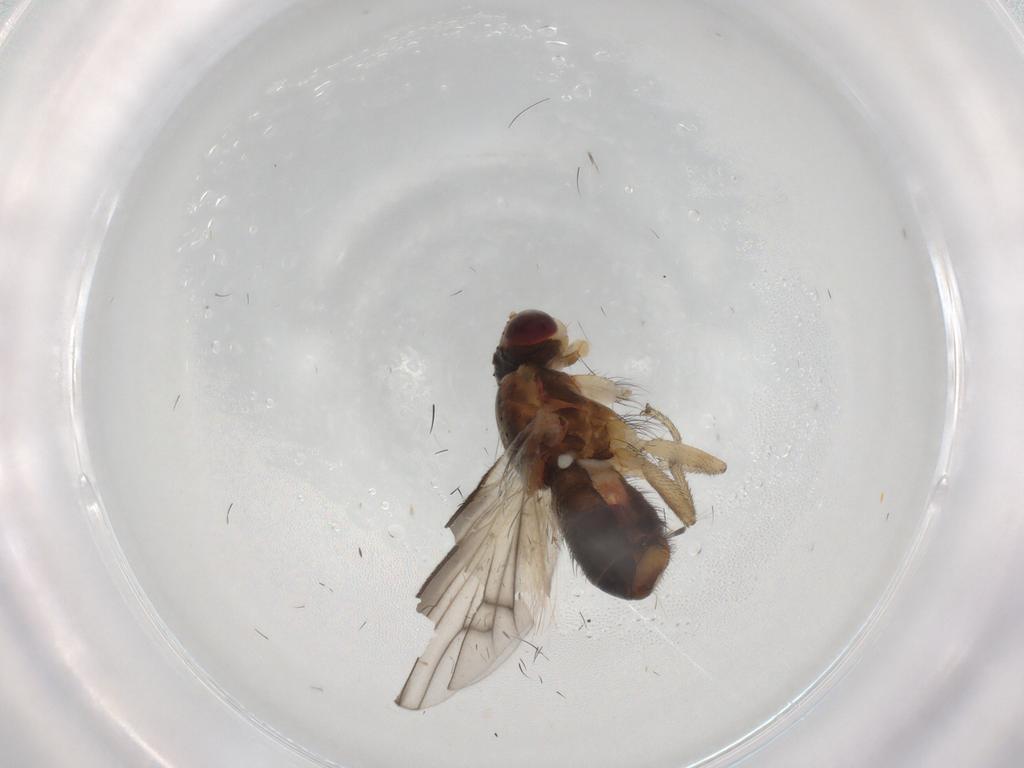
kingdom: Animalia
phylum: Arthropoda
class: Insecta
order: Diptera
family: Heleomyzidae
